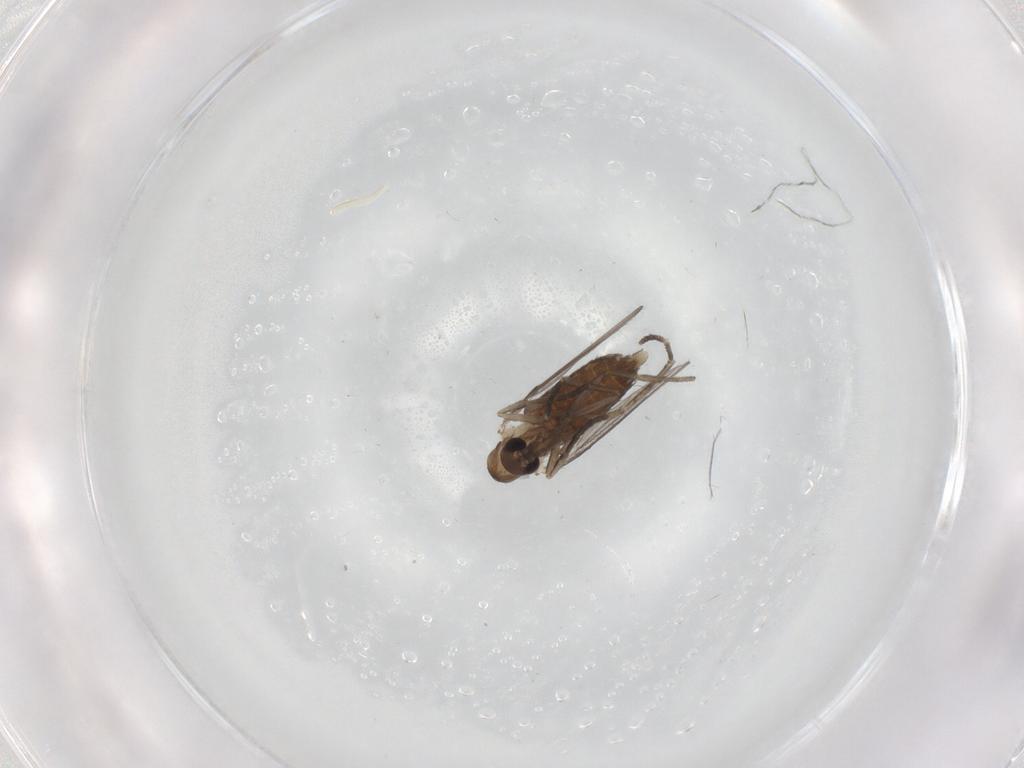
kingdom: Animalia
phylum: Arthropoda
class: Insecta
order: Diptera
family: Psychodidae
